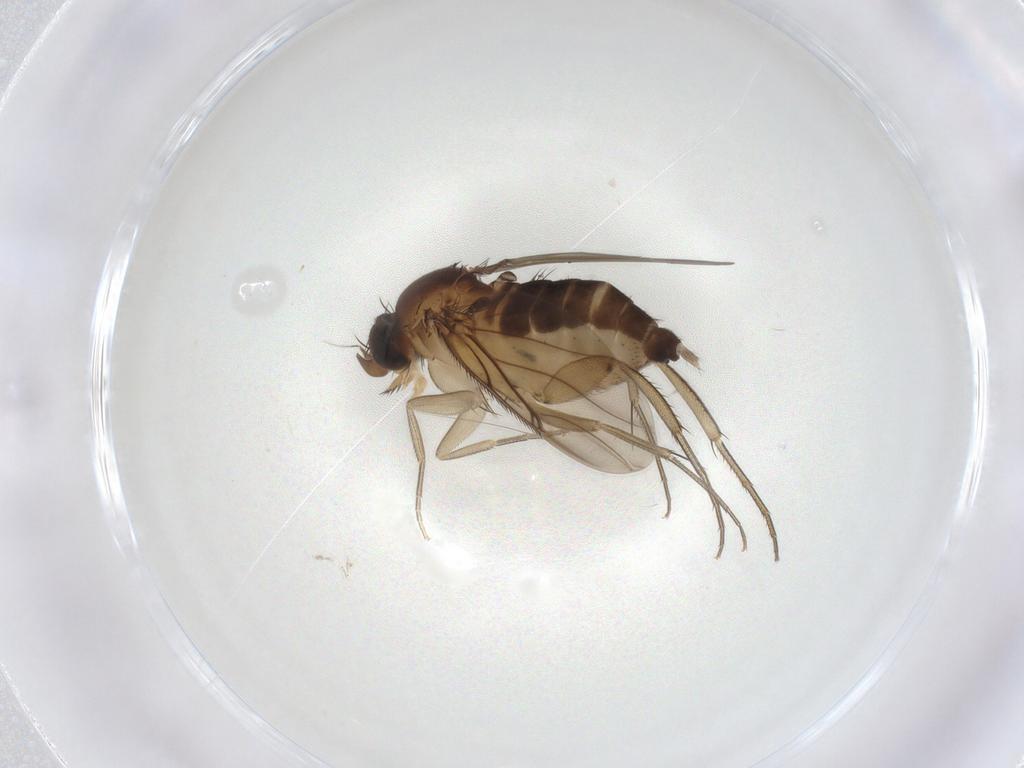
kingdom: Animalia
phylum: Arthropoda
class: Insecta
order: Diptera
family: Phoridae
